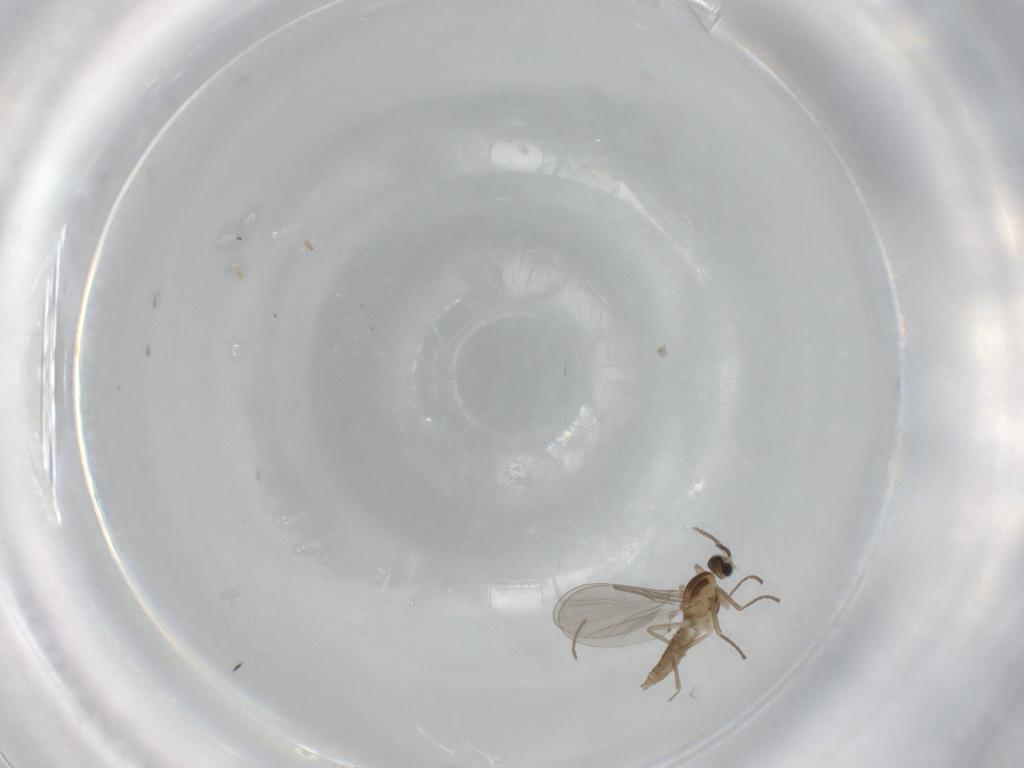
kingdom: Animalia
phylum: Arthropoda
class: Insecta
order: Diptera
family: Cecidomyiidae
